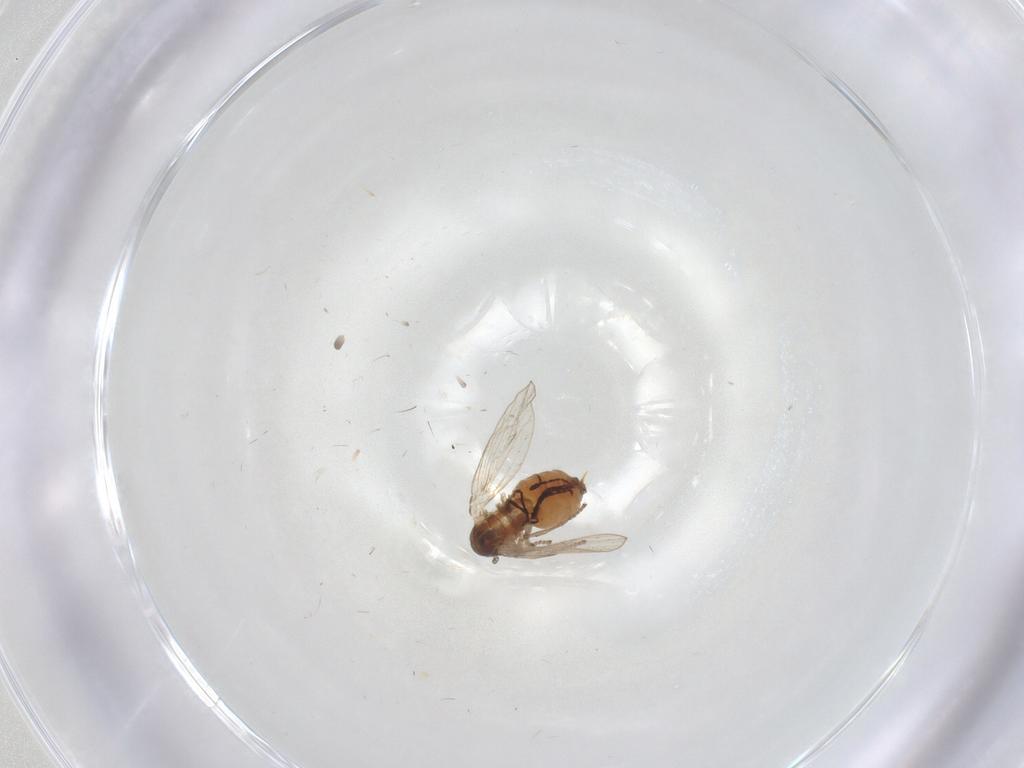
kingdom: Animalia
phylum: Arthropoda
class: Insecta
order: Diptera
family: Psychodidae
